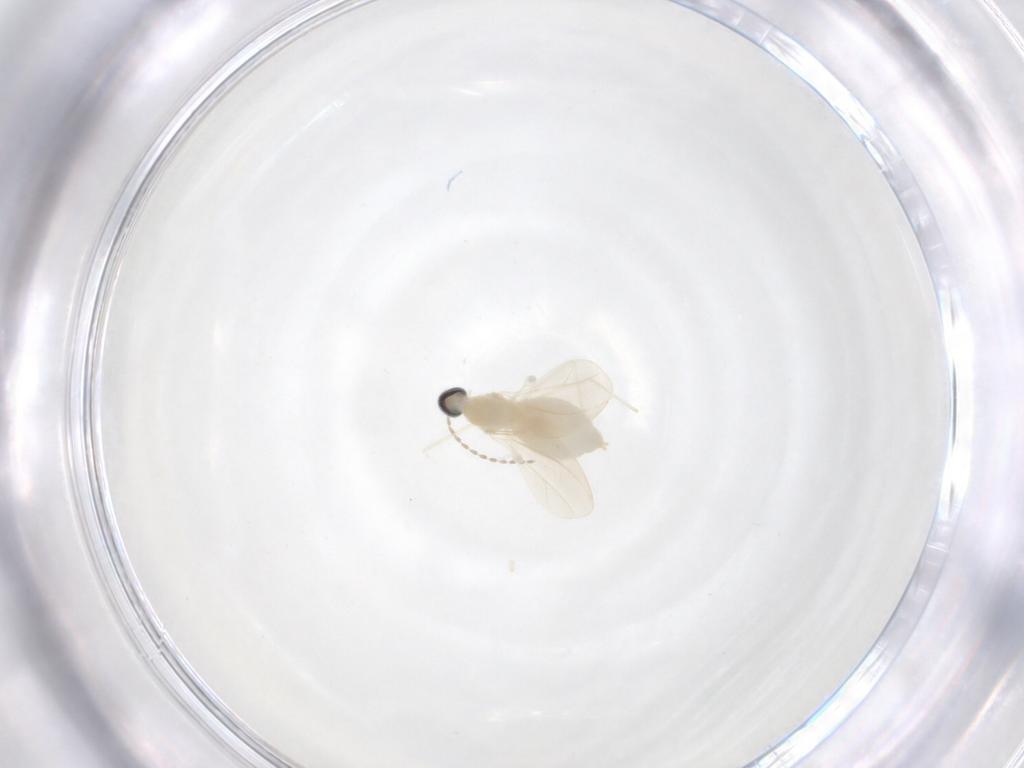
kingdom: Animalia
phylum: Arthropoda
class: Insecta
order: Diptera
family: Cecidomyiidae
